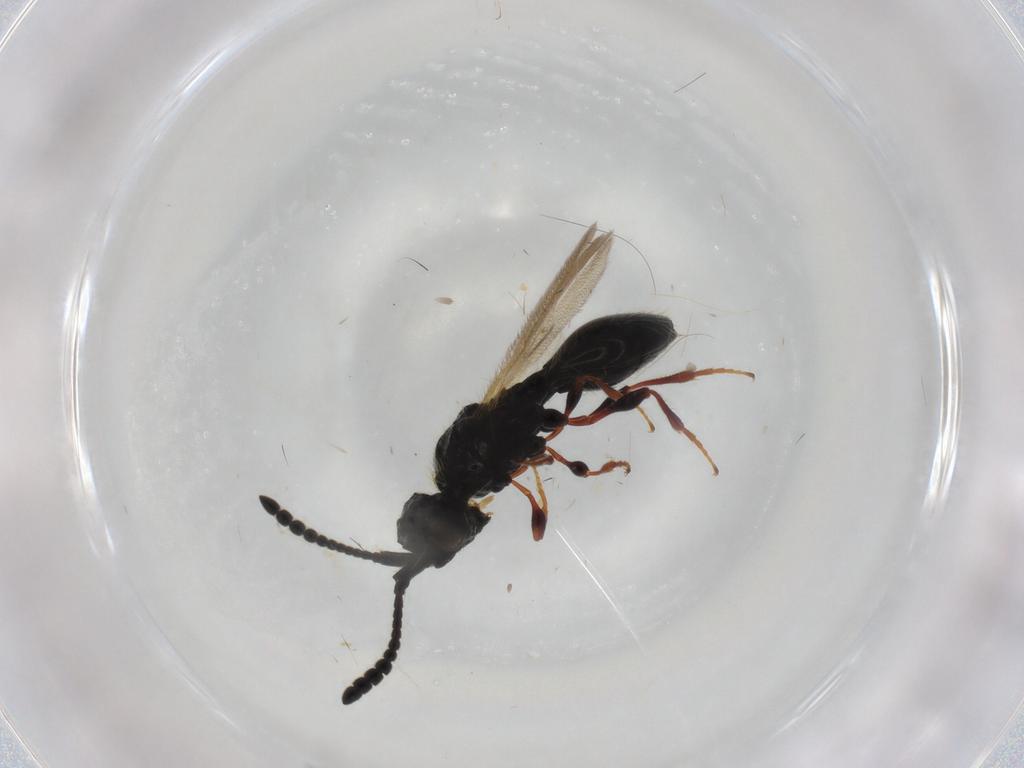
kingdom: Animalia
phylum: Arthropoda
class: Insecta
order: Hymenoptera
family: Diapriidae
